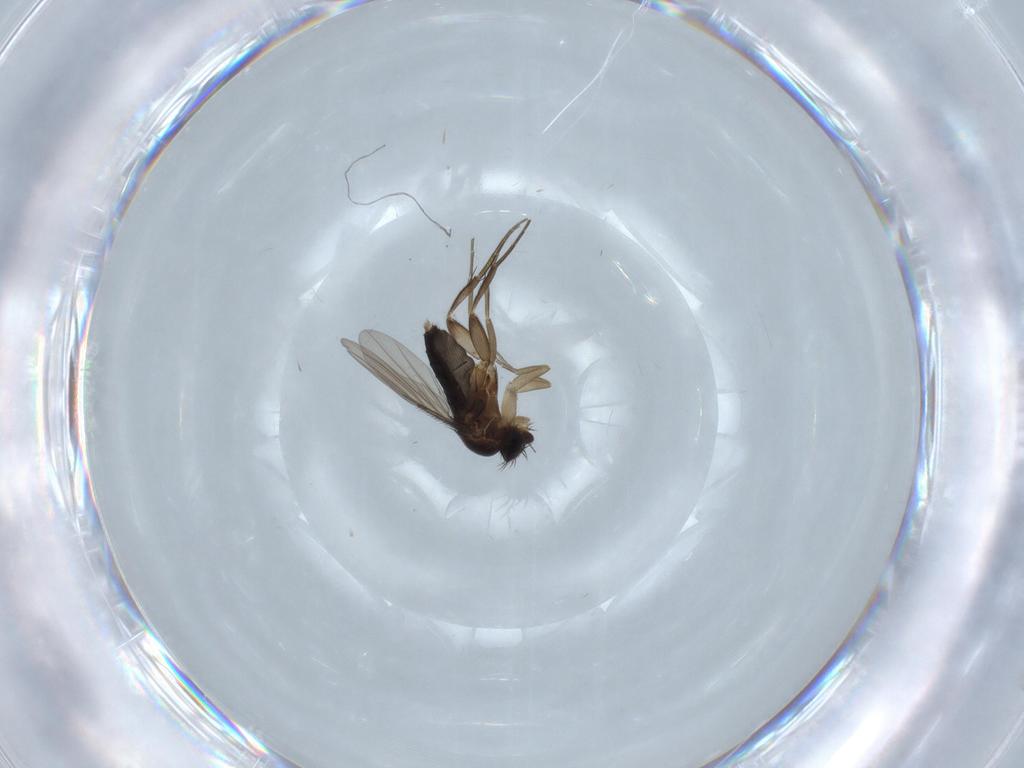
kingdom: Animalia
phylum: Arthropoda
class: Insecta
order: Diptera
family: Phoridae
